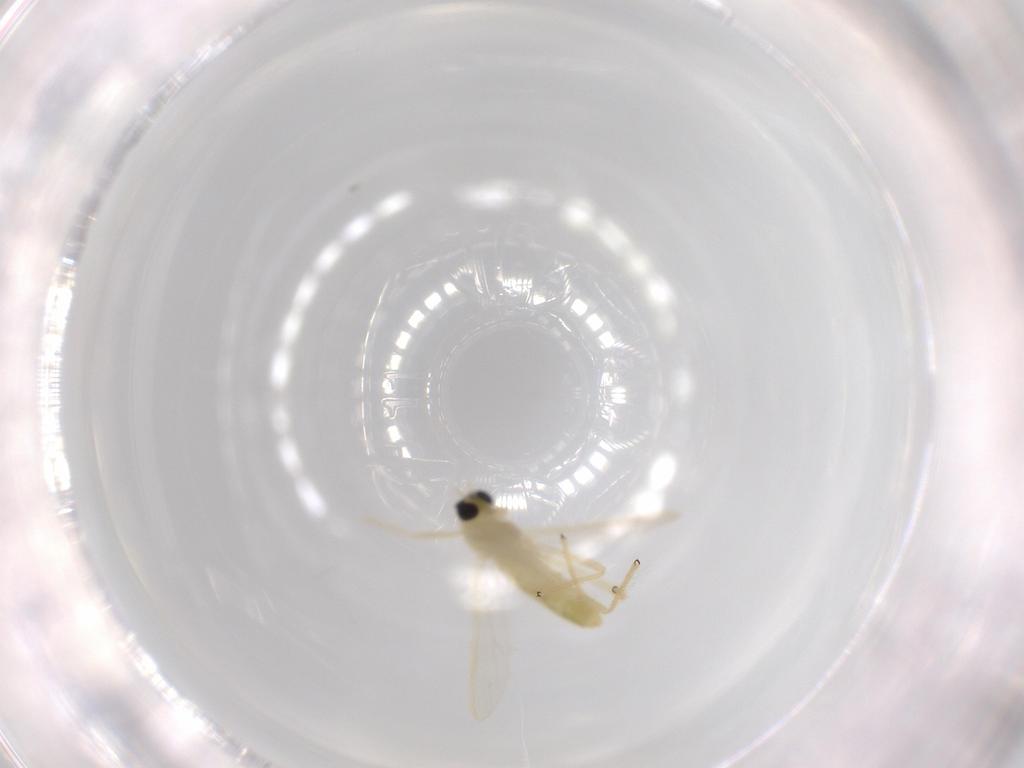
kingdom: Animalia
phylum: Arthropoda
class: Insecta
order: Diptera
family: Chironomidae
